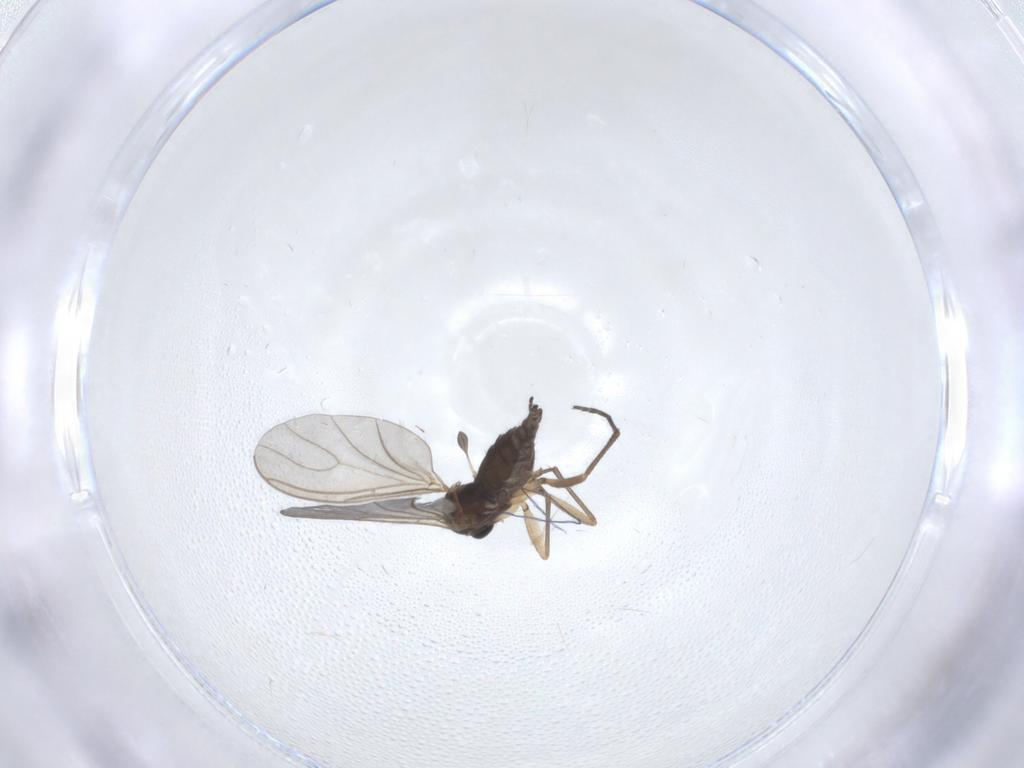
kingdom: Animalia
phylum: Arthropoda
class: Insecta
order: Diptera
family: Sciaridae
